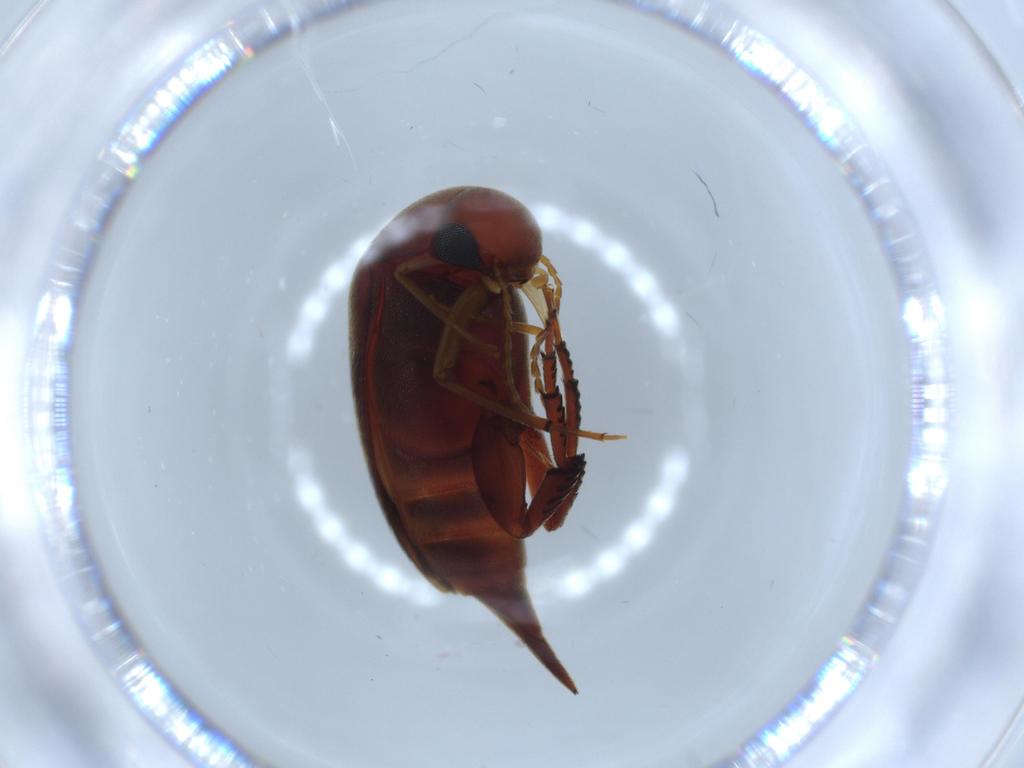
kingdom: Animalia
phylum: Arthropoda
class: Insecta
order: Coleoptera
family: Mordellidae
